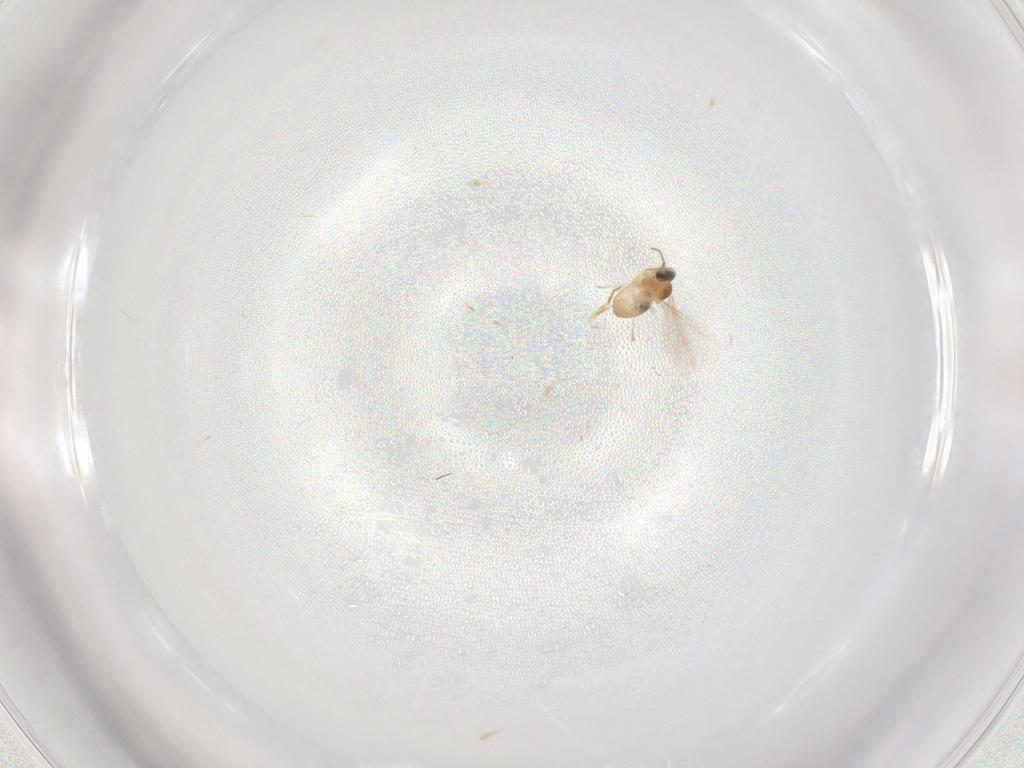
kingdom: Animalia
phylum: Arthropoda
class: Insecta
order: Diptera
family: Cecidomyiidae
